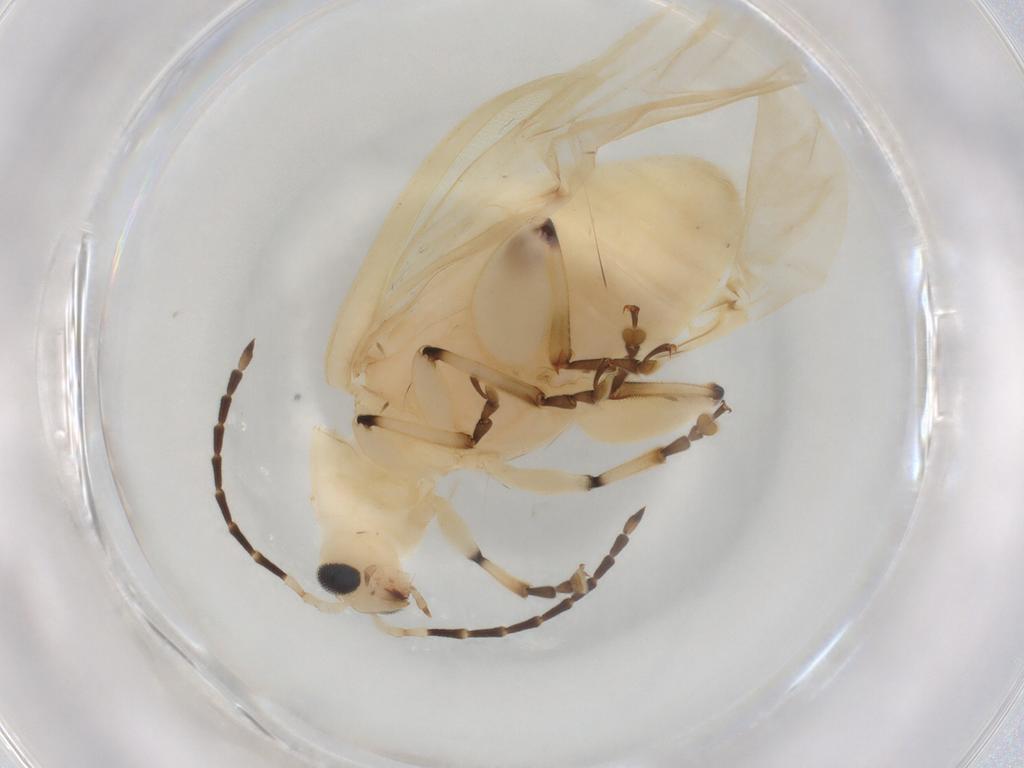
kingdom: Animalia
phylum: Arthropoda
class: Insecta
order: Coleoptera
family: Chrysomelidae
